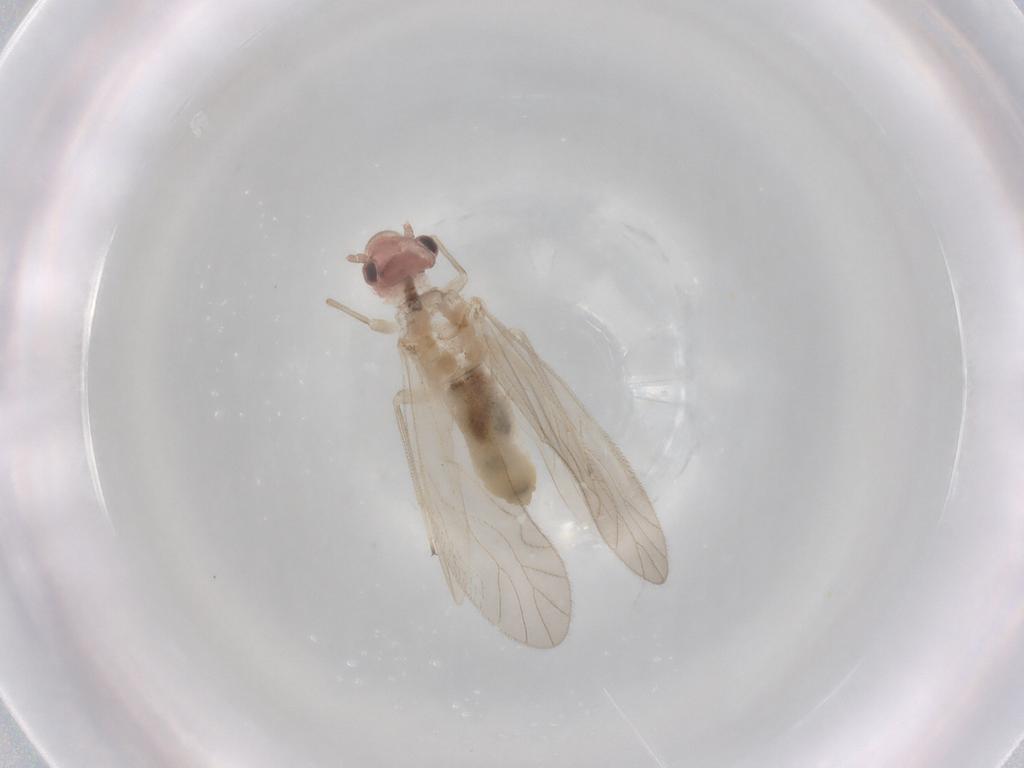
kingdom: Animalia
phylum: Arthropoda
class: Insecta
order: Psocodea
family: Caeciliusidae
